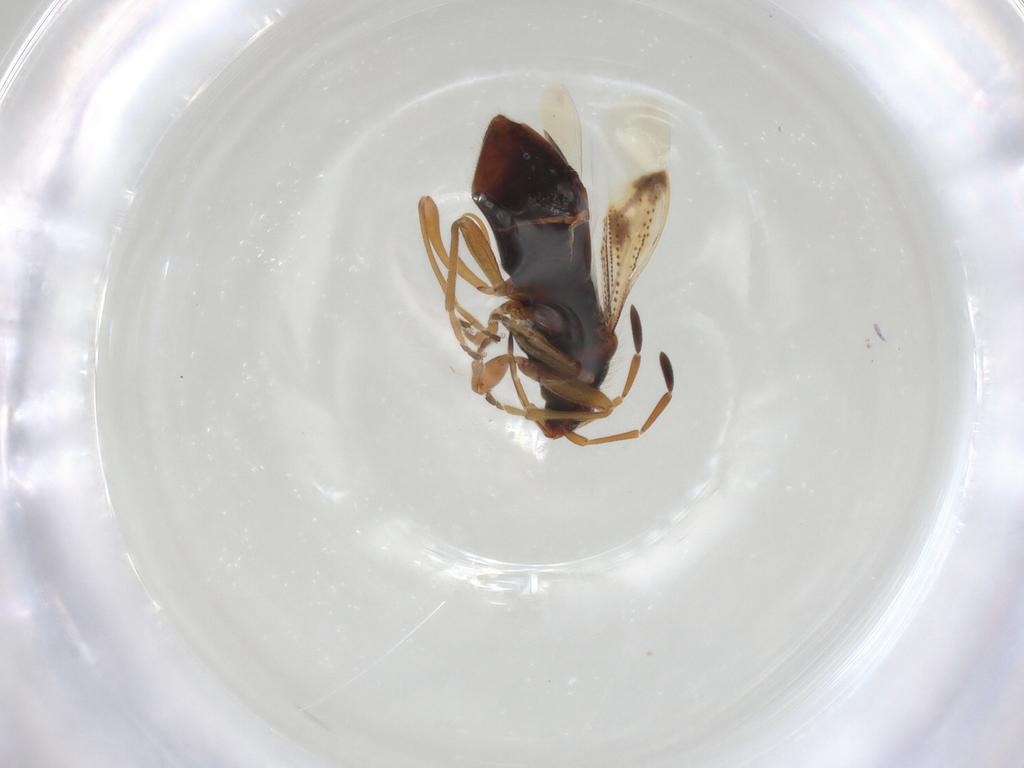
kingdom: Animalia
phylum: Arthropoda
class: Insecta
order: Hemiptera
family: Rhyparochromidae
